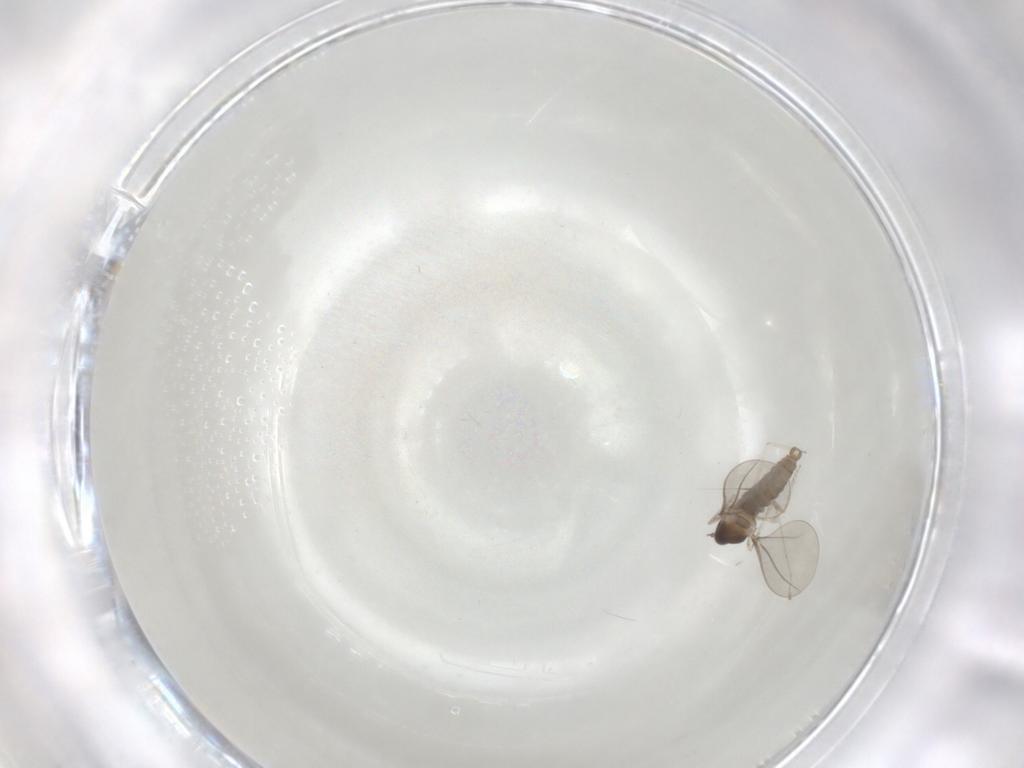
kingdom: Animalia
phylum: Arthropoda
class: Insecta
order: Diptera
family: Cecidomyiidae
